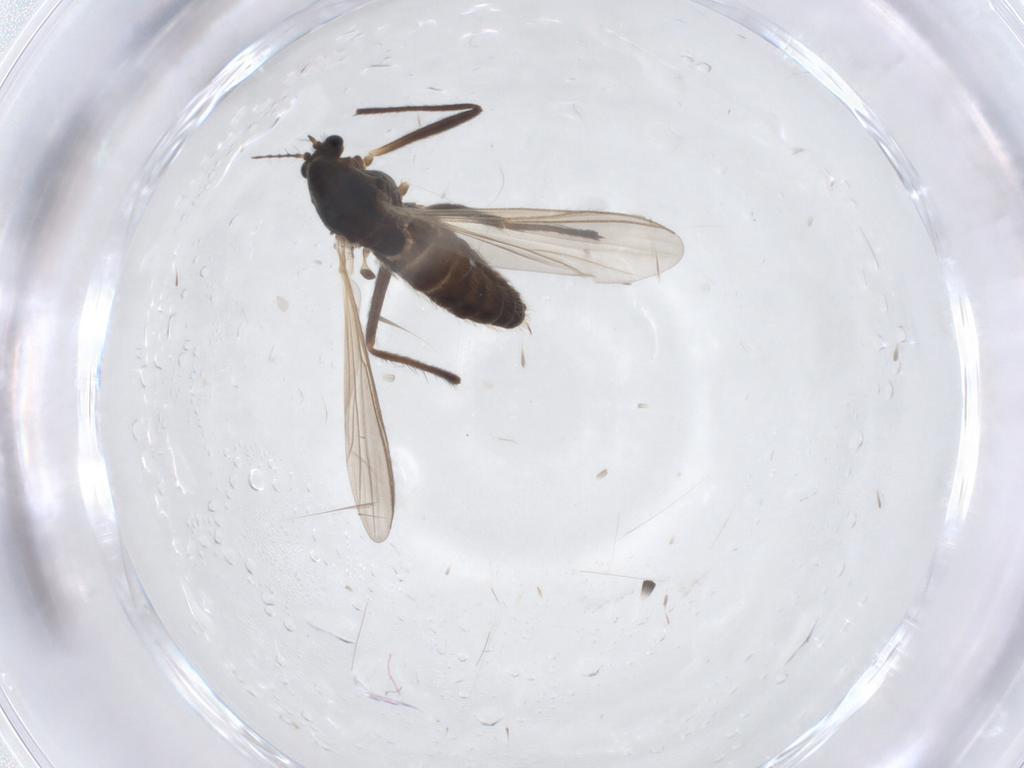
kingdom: Animalia
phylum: Arthropoda
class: Insecta
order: Diptera
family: Chironomidae
